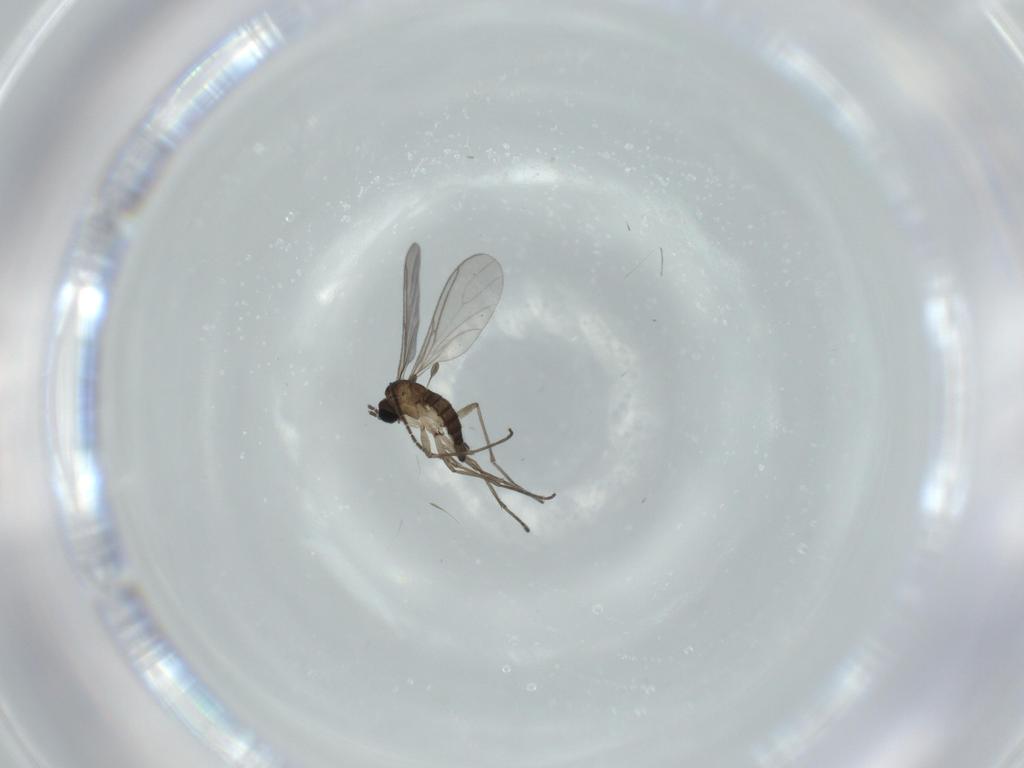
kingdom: Animalia
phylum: Arthropoda
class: Insecta
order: Diptera
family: Sciaridae
